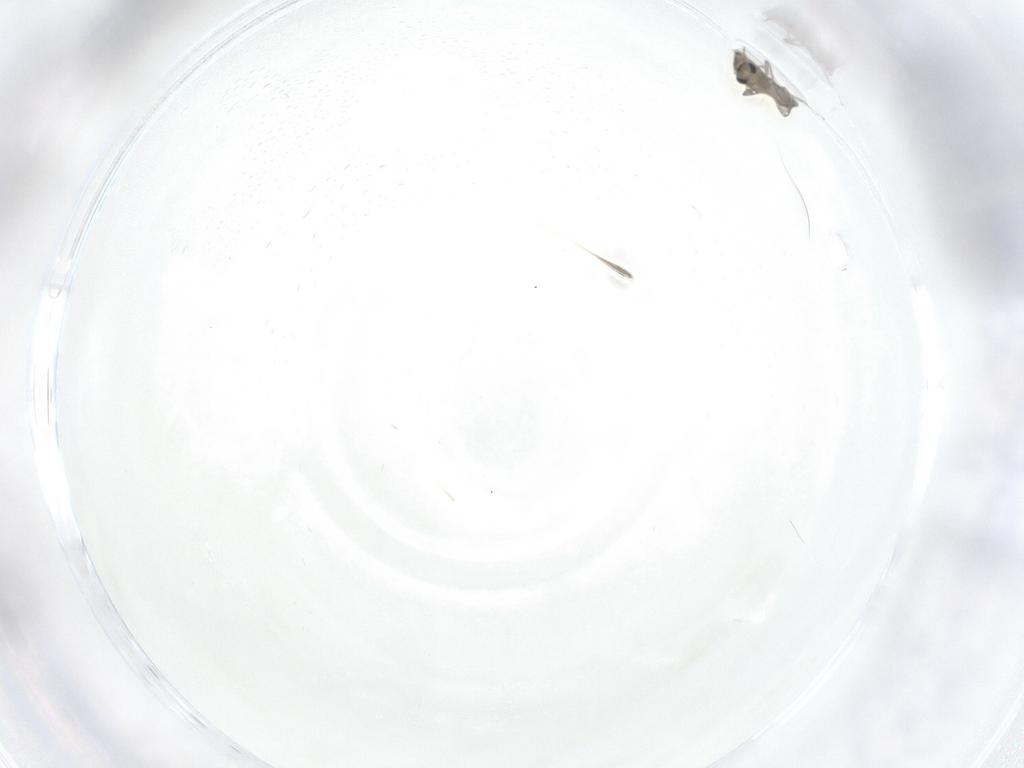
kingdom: Animalia
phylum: Arthropoda
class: Insecta
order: Diptera
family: Chironomidae
